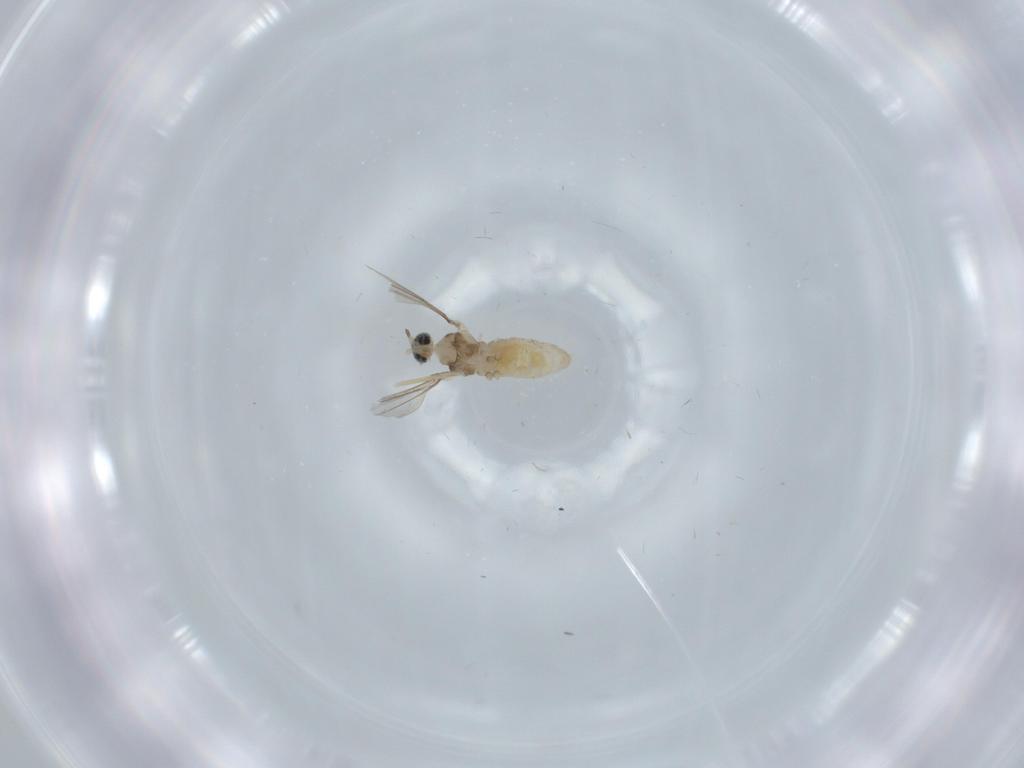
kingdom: Animalia
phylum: Arthropoda
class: Insecta
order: Diptera
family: Cecidomyiidae
